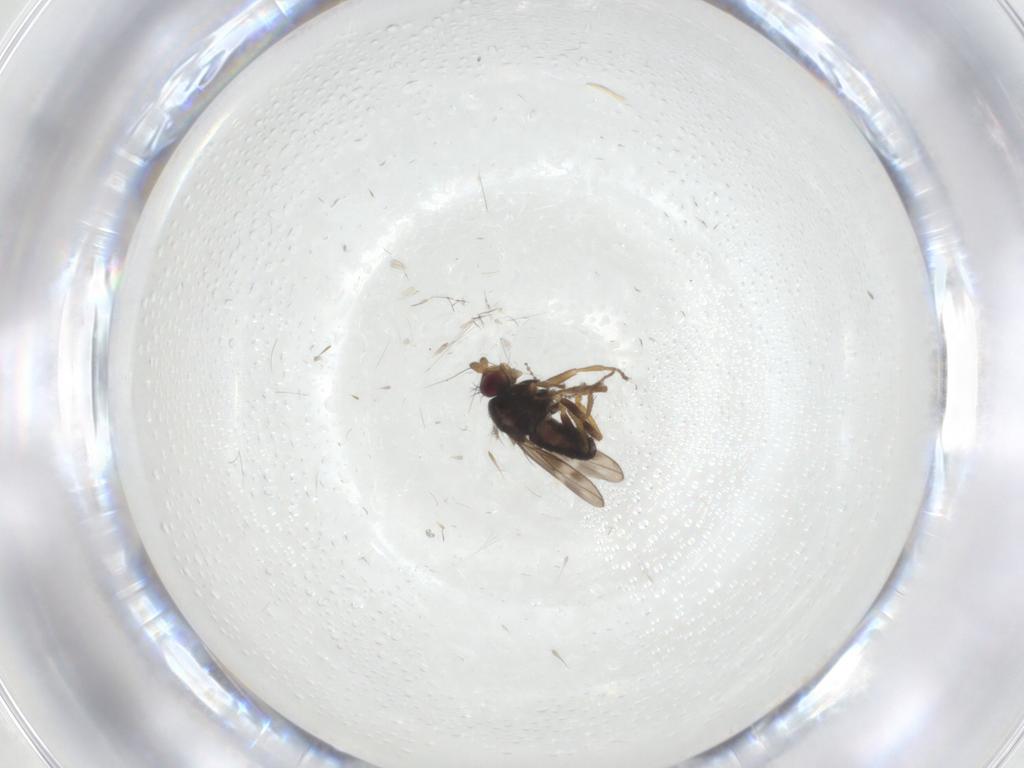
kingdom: Animalia
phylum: Arthropoda
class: Insecta
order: Diptera
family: Sphaeroceridae
